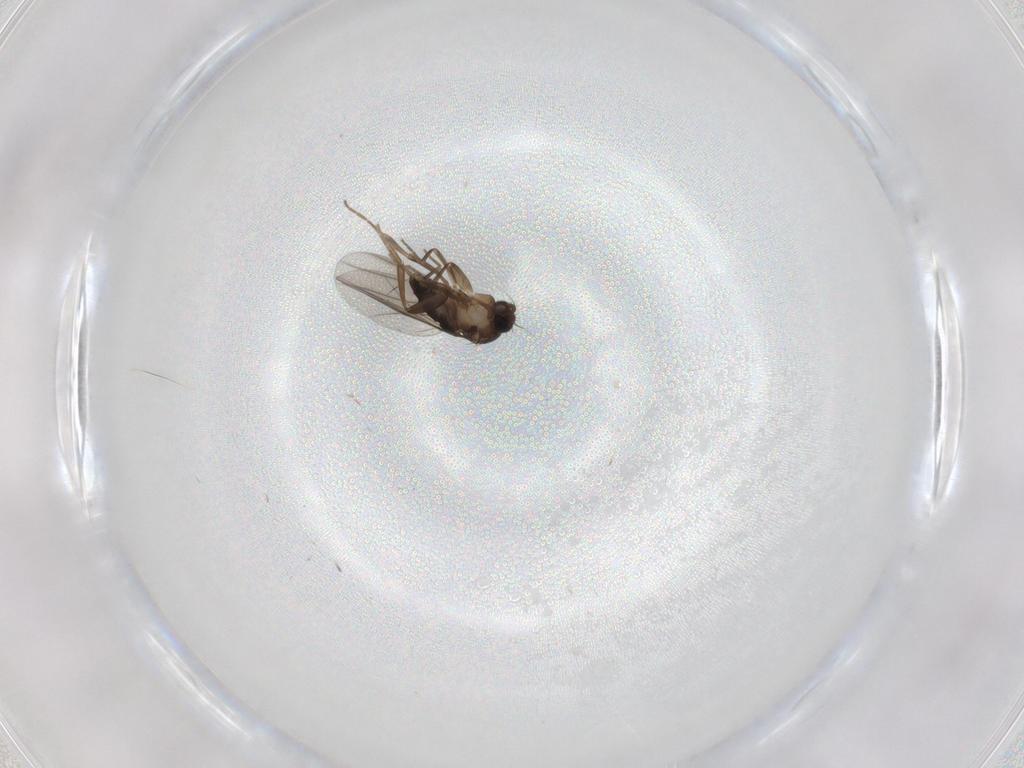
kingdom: Animalia
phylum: Arthropoda
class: Insecta
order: Diptera
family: Phoridae
